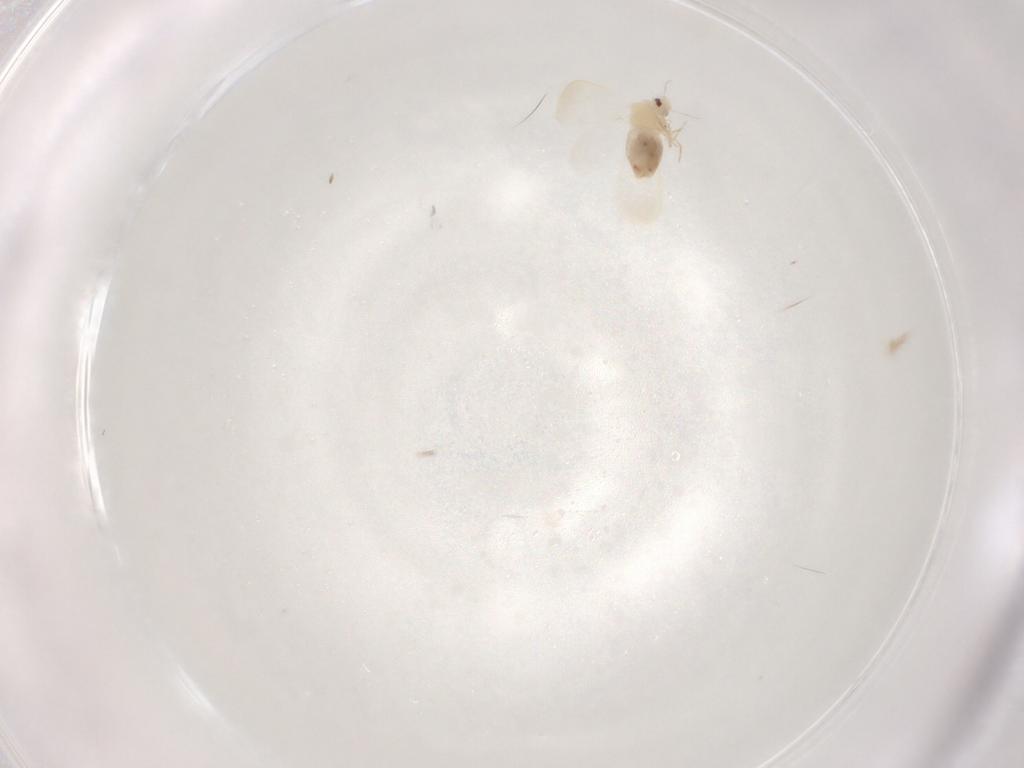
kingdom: Animalia
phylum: Arthropoda
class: Insecta
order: Hemiptera
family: Aleyrodidae
